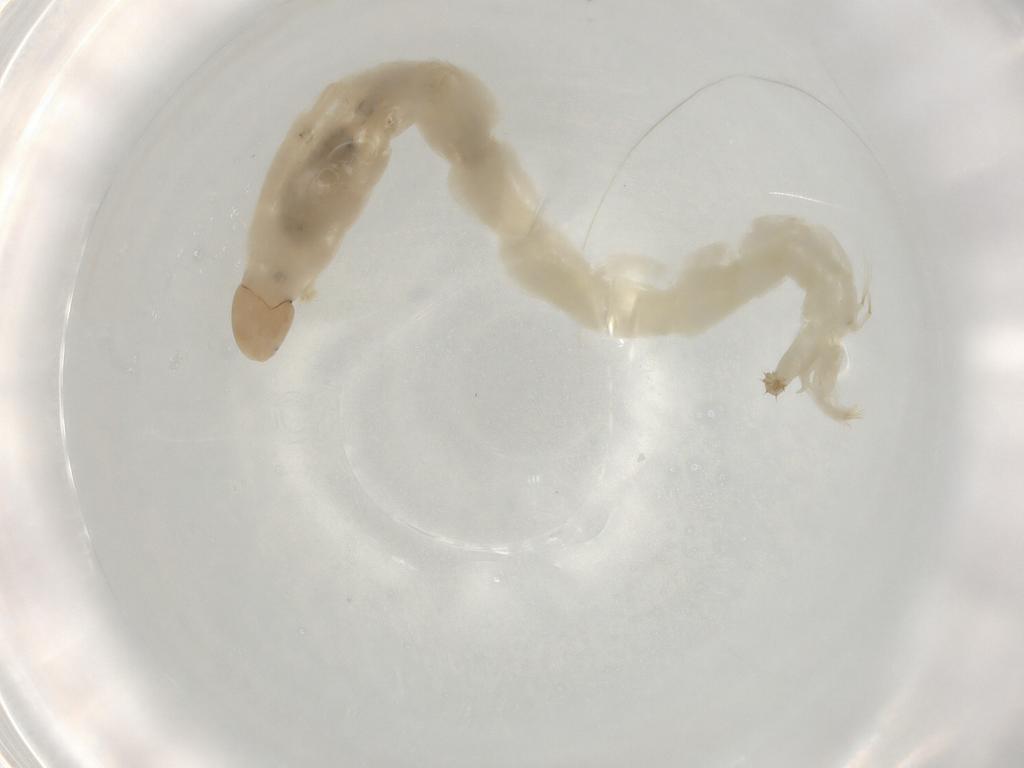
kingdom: Animalia
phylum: Arthropoda
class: Insecta
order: Diptera
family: Chironomidae
